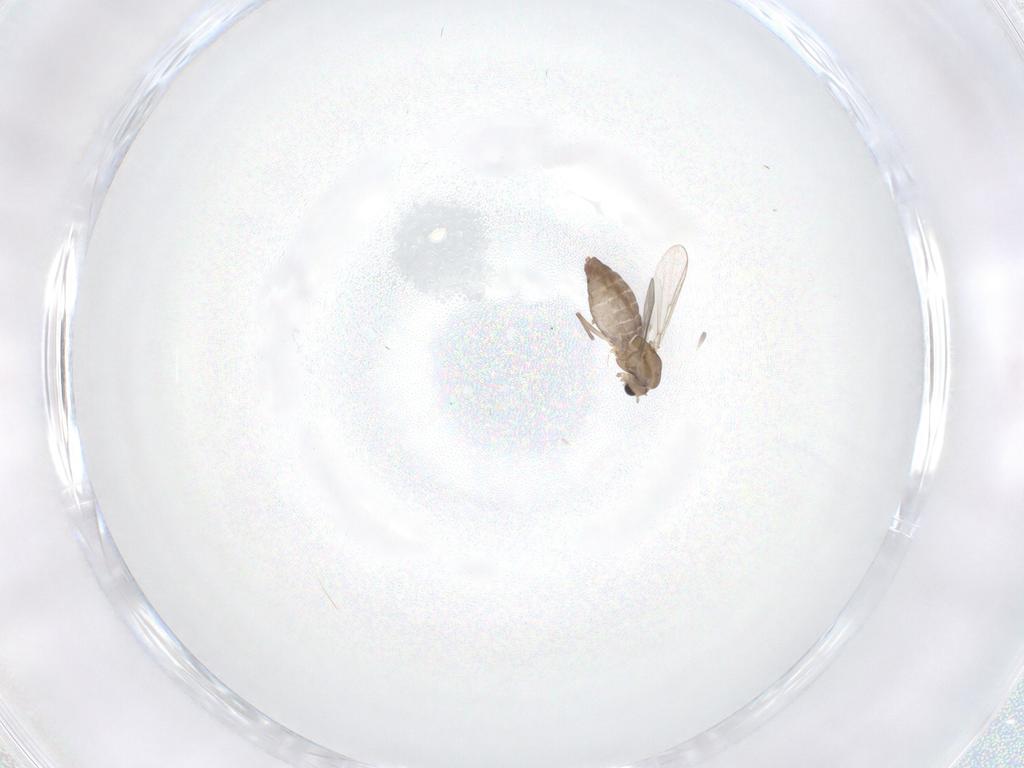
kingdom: Animalia
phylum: Arthropoda
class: Insecta
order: Diptera
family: Chironomidae
